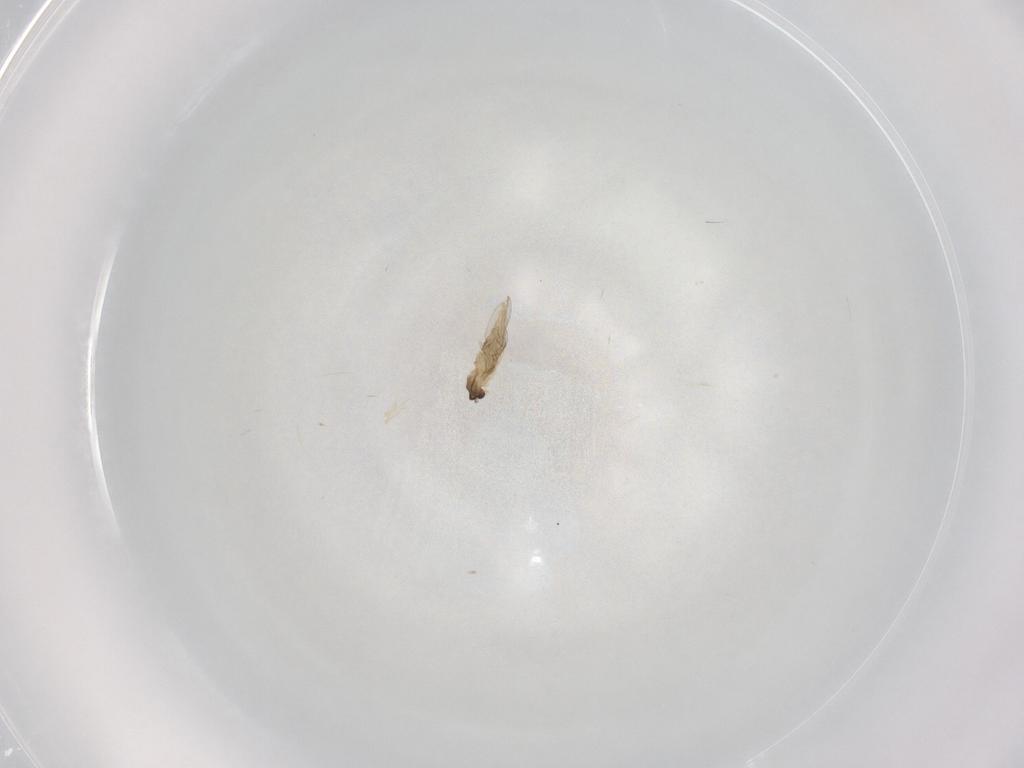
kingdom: Animalia
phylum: Arthropoda
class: Insecta
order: Diptera
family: Cecidomyiidae
